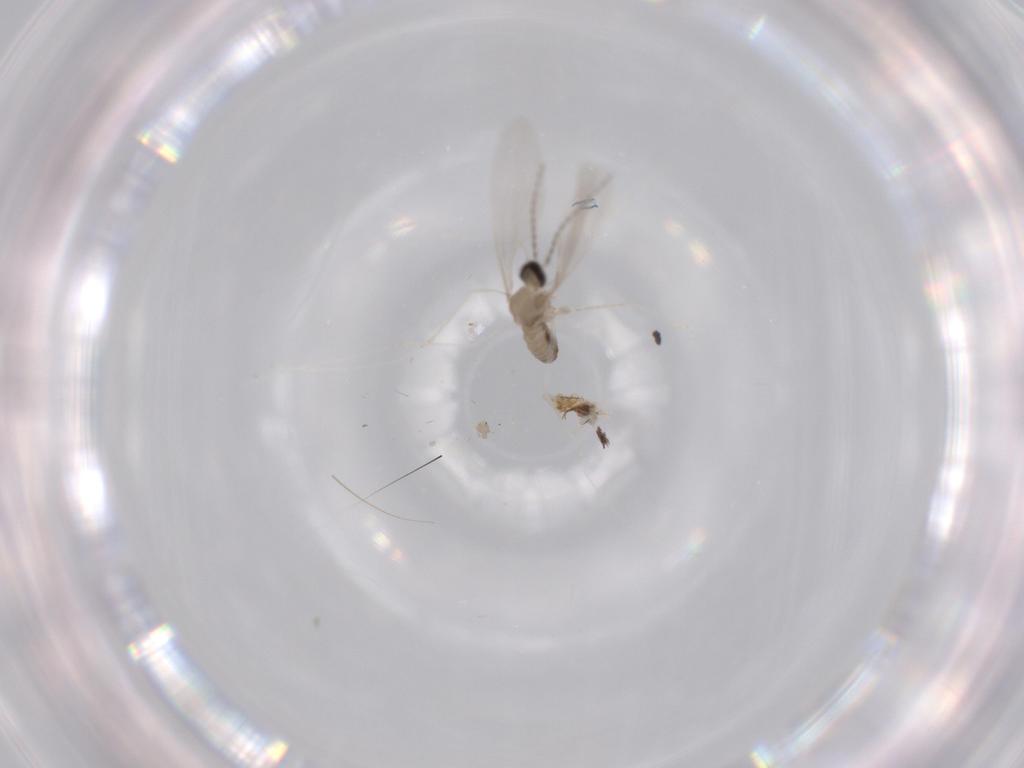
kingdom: Animalia
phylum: Arthropoda
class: Insecta
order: Diptera
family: Cecidomyiidae
